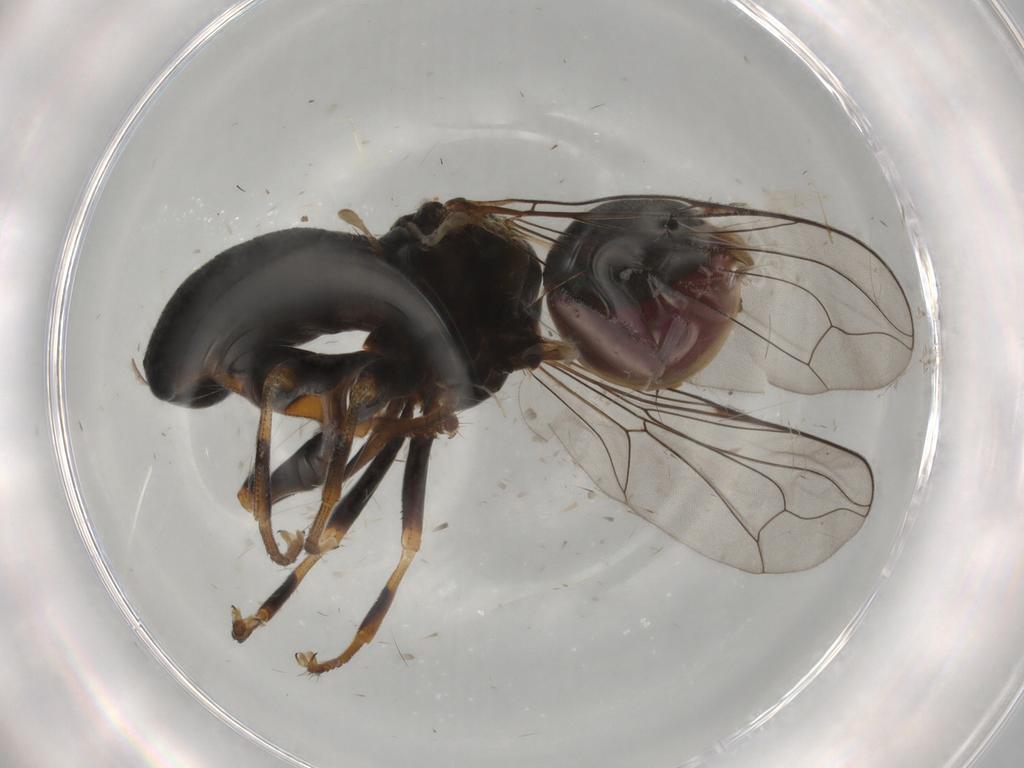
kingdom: Animalia
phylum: Arthropoda
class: Insecta
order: Diptera
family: Pipunculidae
